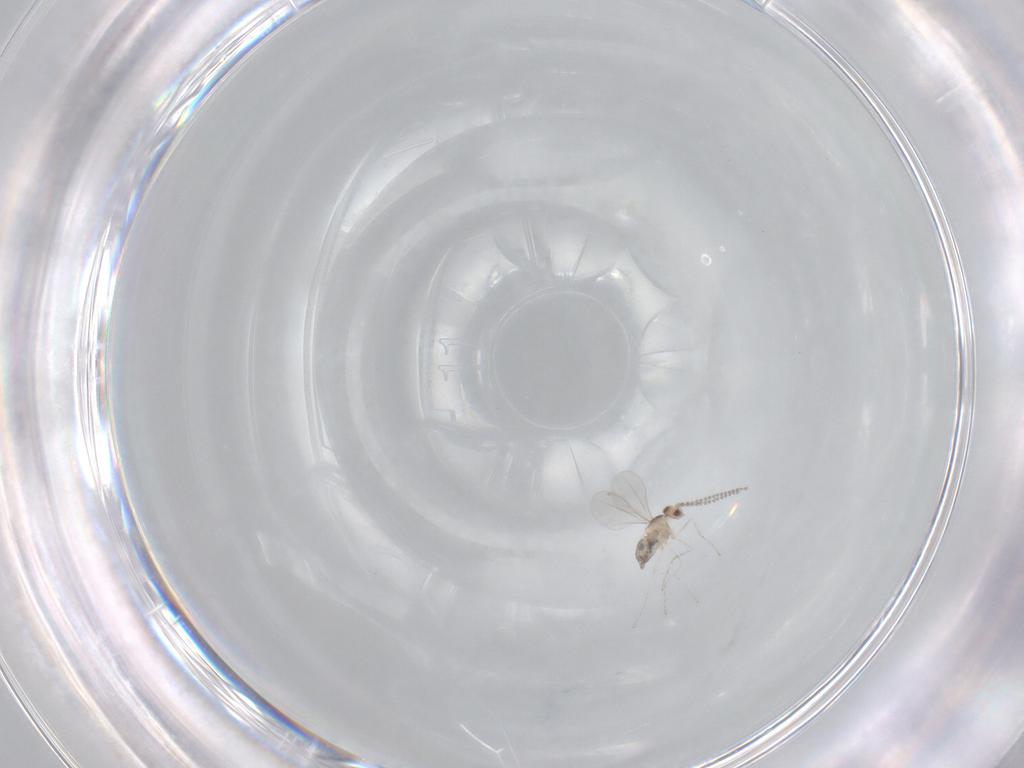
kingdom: Animalia
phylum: Arthropoda
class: Insecta
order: Diptera
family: Cecidomyiidae
